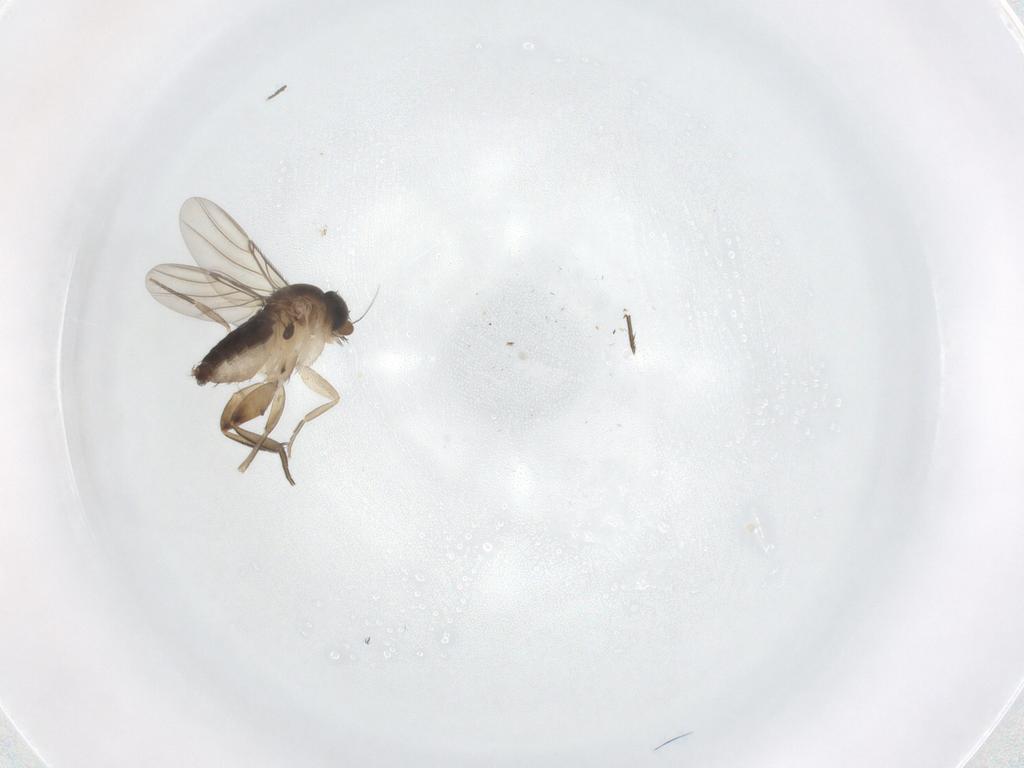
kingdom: Animalia
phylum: Arthropoda
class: Insecta
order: Diptera
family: Phoridae
